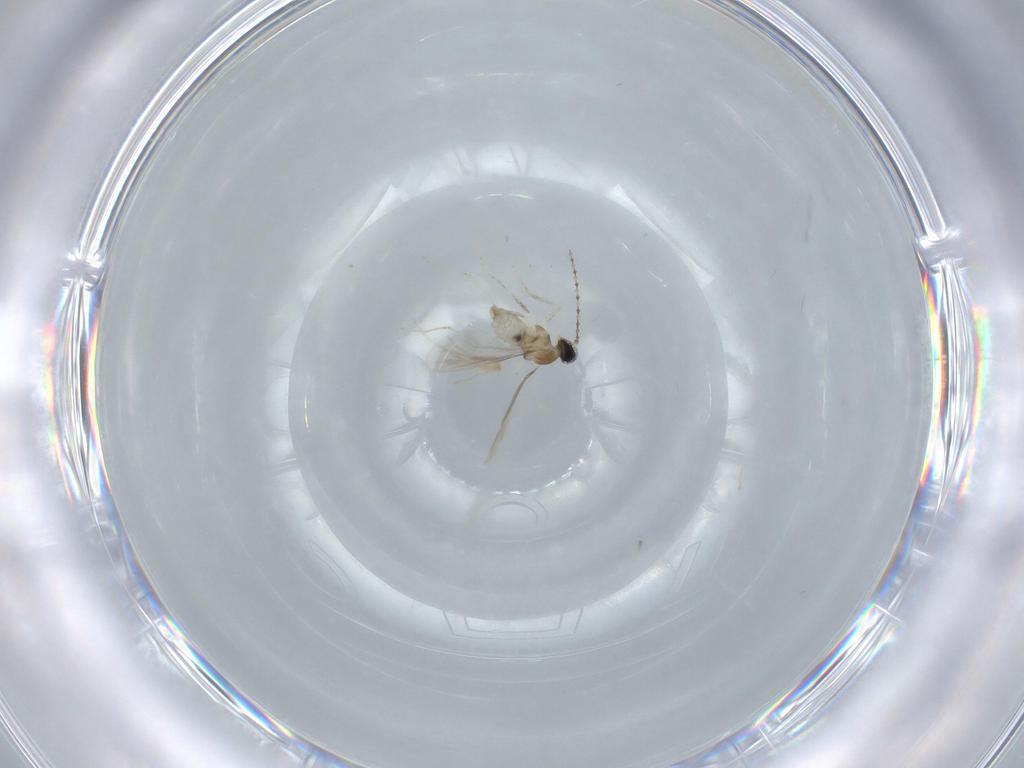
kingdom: Animalia
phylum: Arthropoda
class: Insecta
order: Diptera
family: Cecidomyiidae
